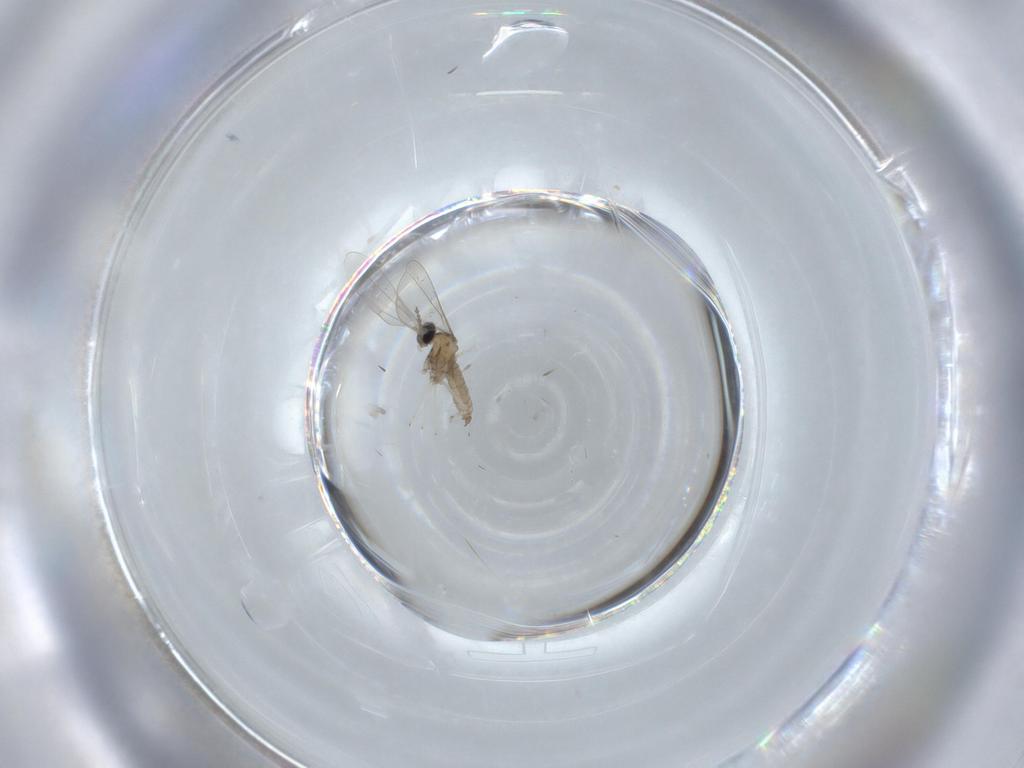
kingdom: Animalia
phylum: Arthropoda
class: Insecta
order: Diptera
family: Cecidomyiidae
